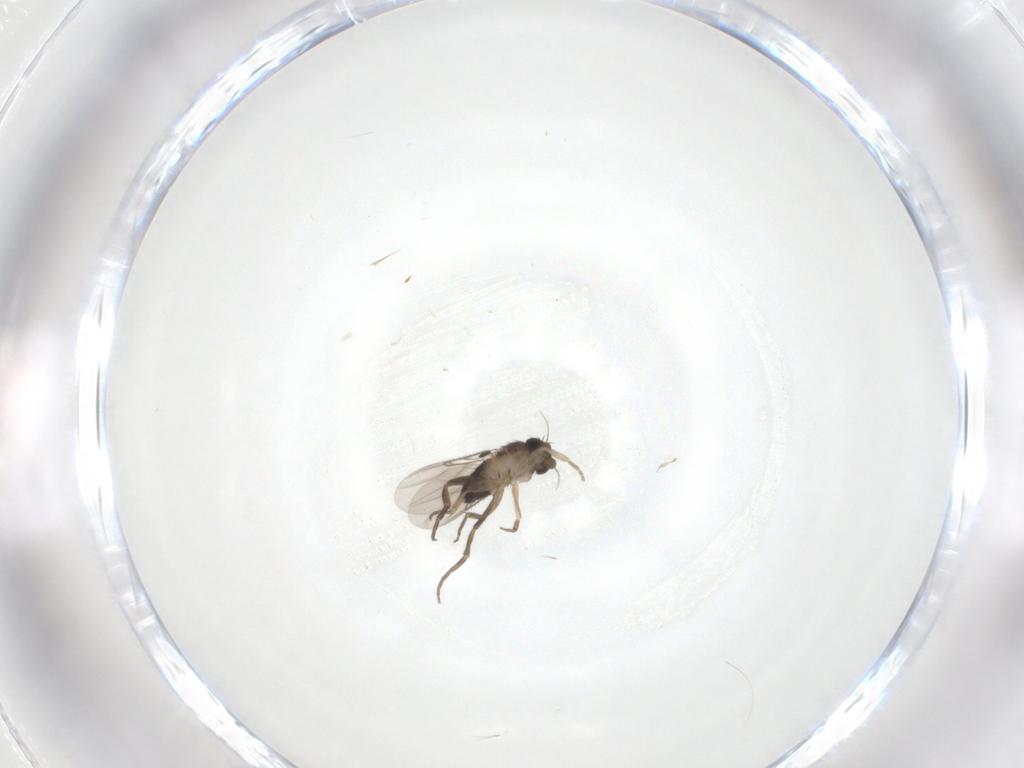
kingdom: Animalia
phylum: Arthropoda
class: Insecta
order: Diptera
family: Phoridae
